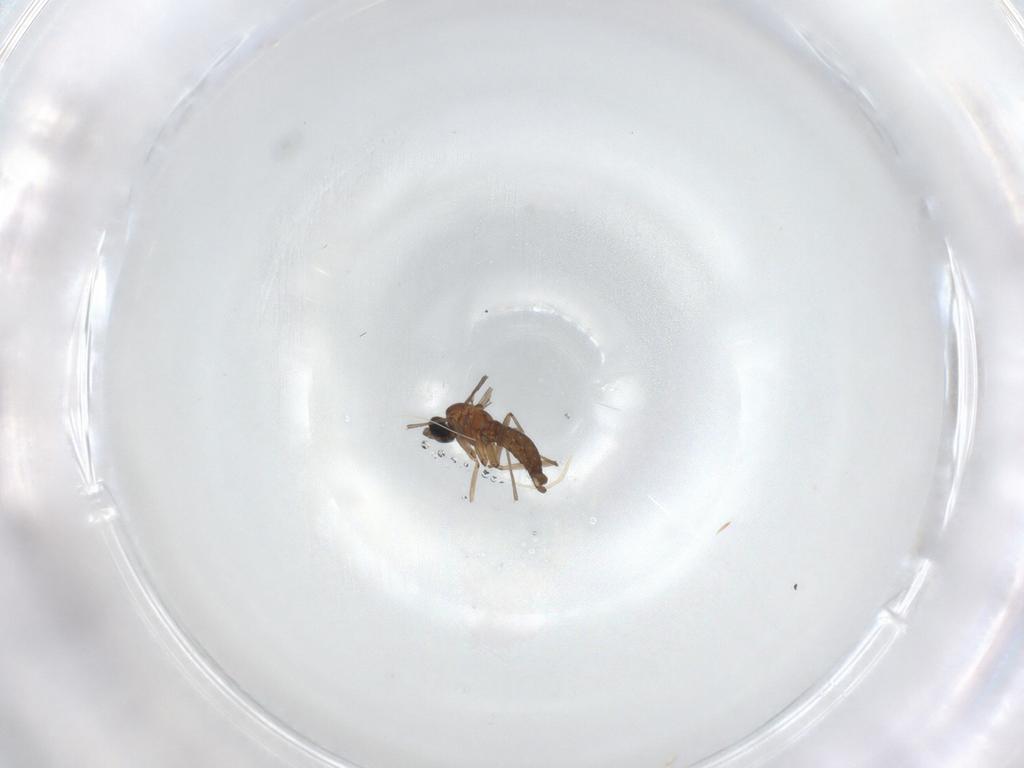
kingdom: Animalia
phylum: Arthropoda
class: Insecta
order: Diptera
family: Sciaridae
